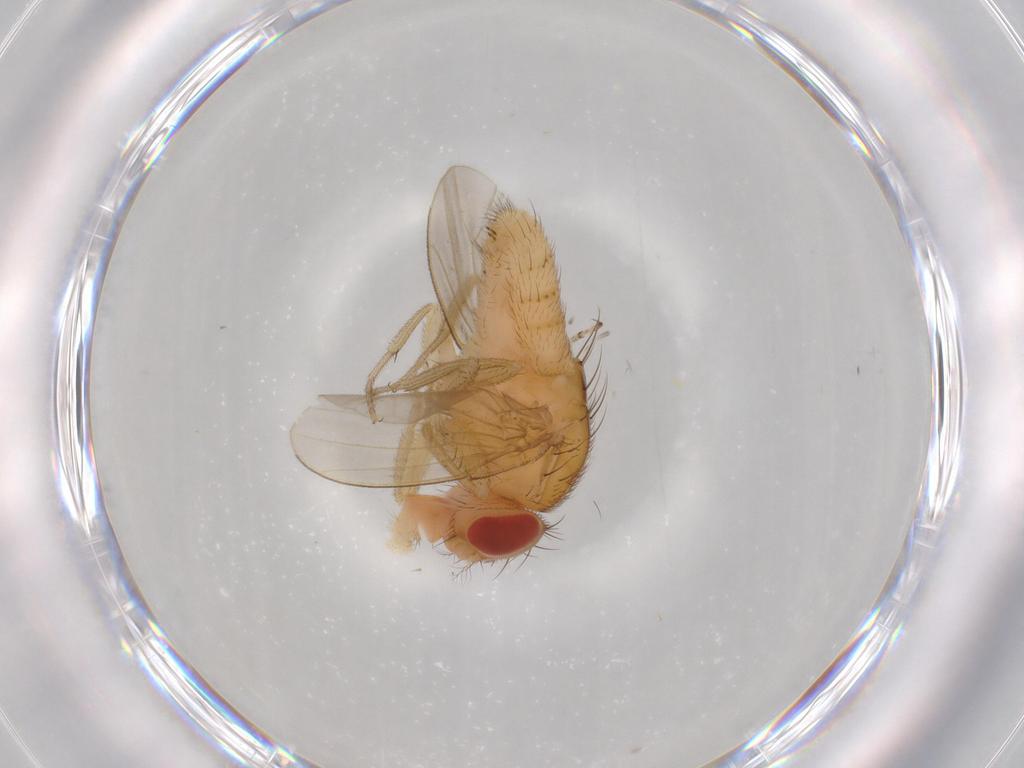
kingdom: Animalia
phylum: Arthropoda
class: Insecta
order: Diptera
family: Drosophilidae
